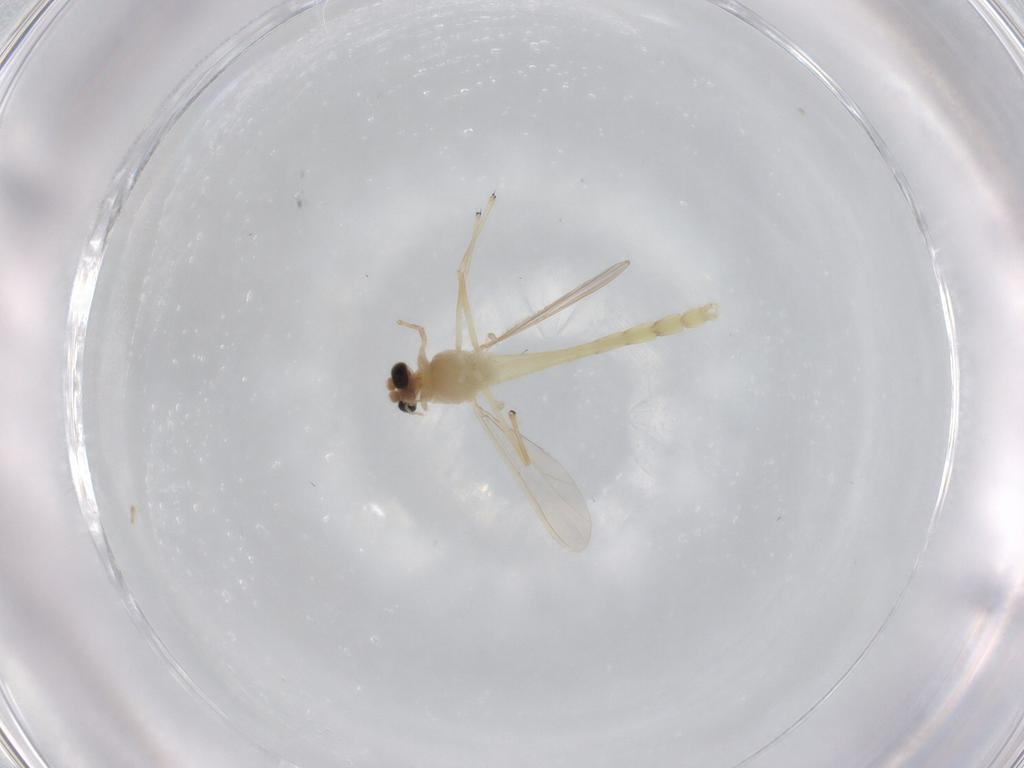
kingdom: Animalia
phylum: Arthropoda
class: Insecta
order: Diptera
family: Chironomidae
